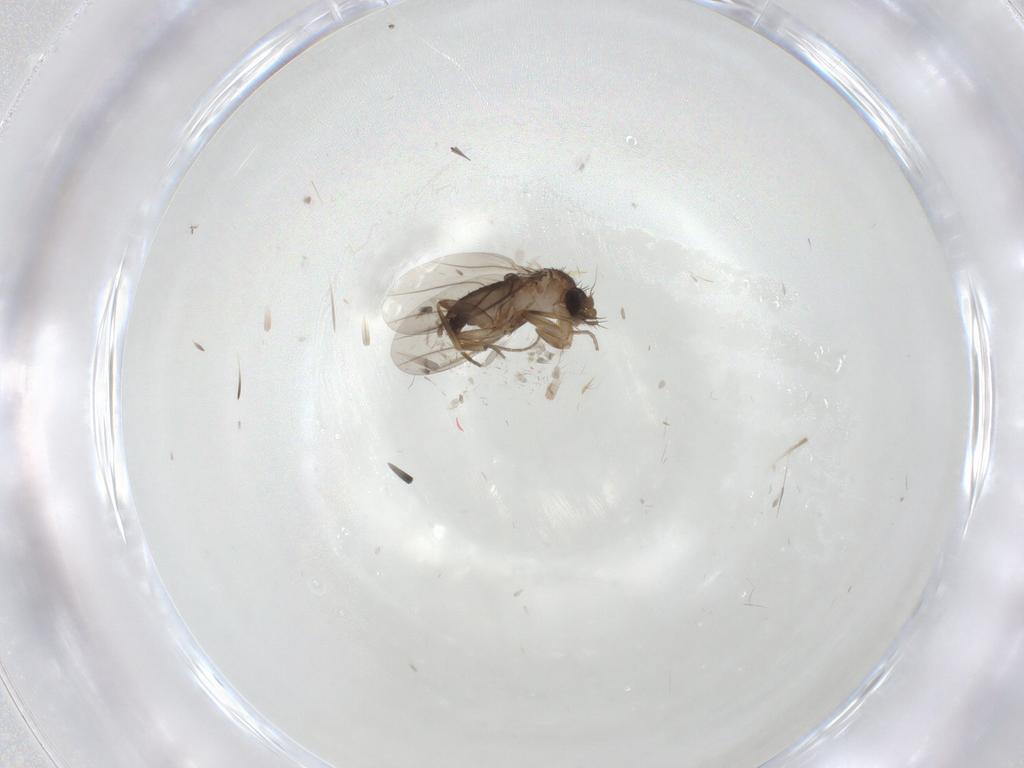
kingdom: Animalia
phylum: Arthropoda
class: Insecta
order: Diptera
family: Phoridae
